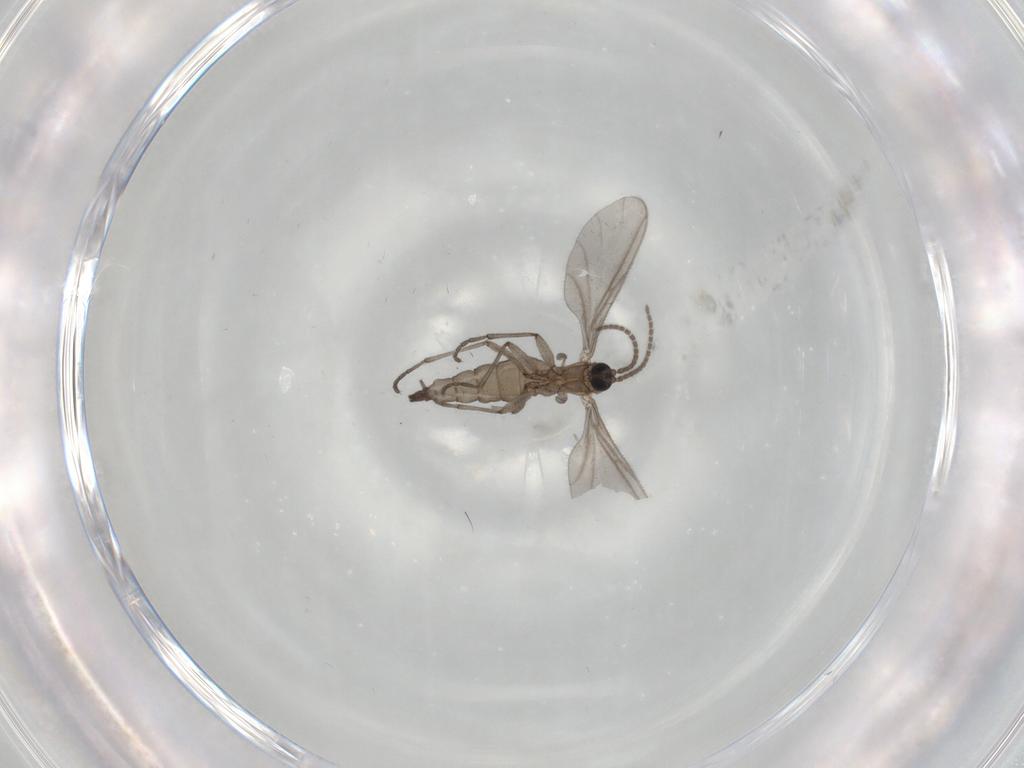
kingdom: Animalia
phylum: Arthropoda
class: Insecta
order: Diptera
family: Sciaridae
